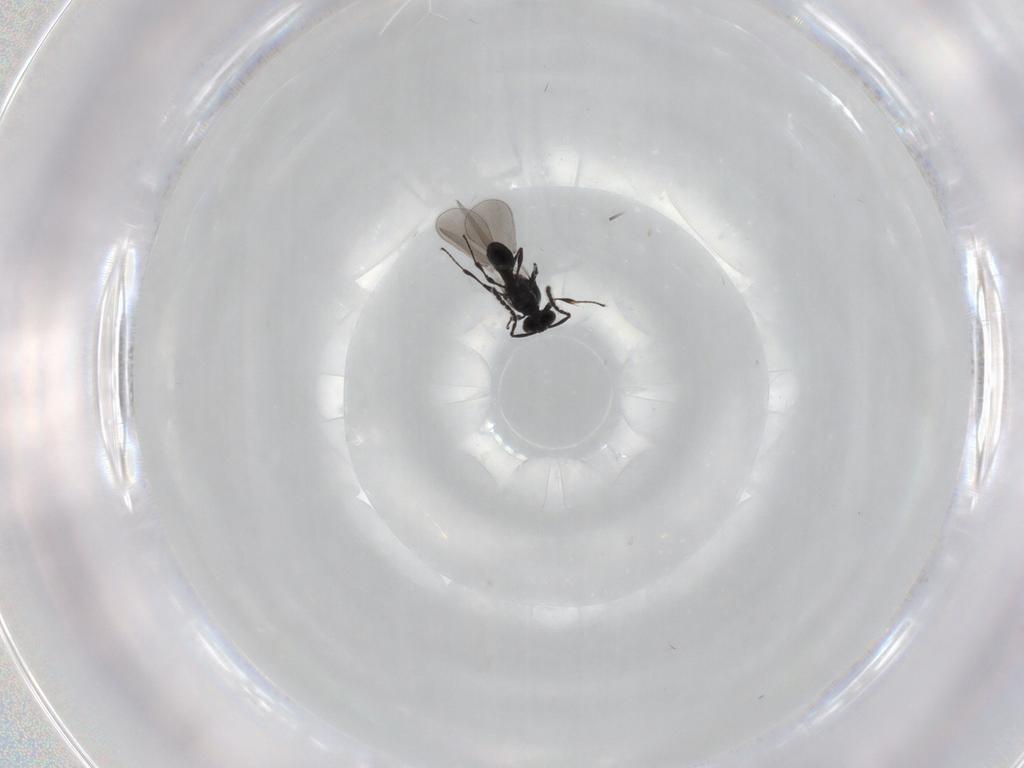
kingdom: Animalia
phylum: Arthropoda
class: Insecta
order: Hymenoptera
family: Platygastridae
